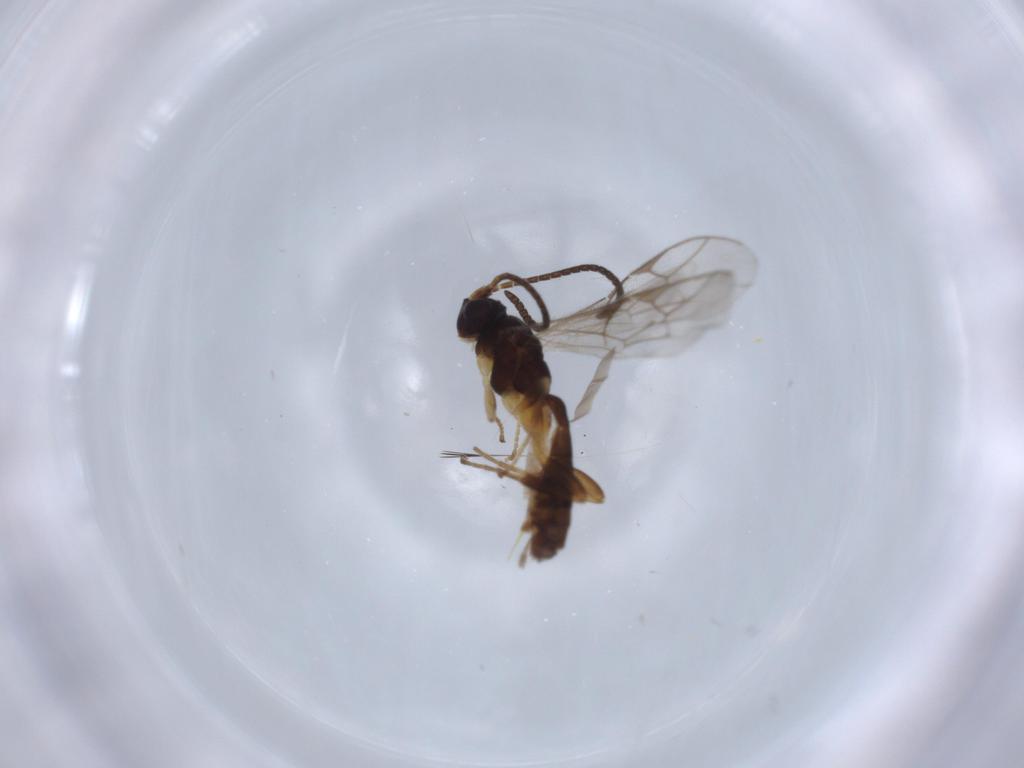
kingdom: Animalia
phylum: Arthropoda
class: Insecta
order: Hymenoptera
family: Ichneumonidae
